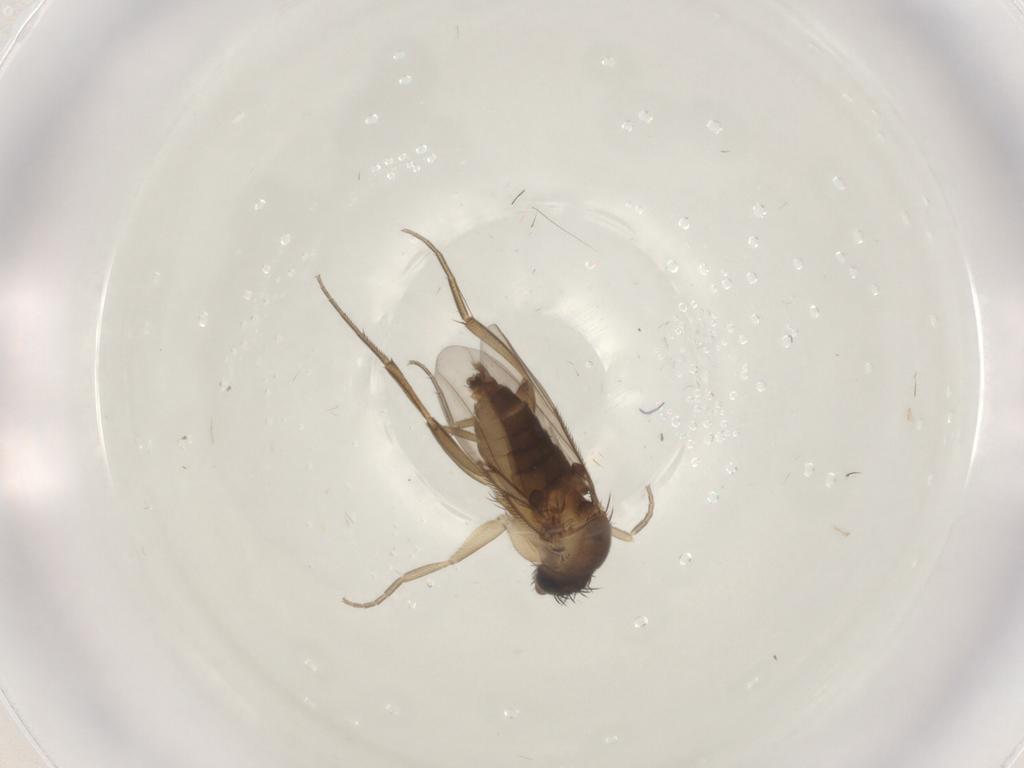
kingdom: Animalia
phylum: Arthropoda
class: Insecta
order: Diptera
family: Phoridae
